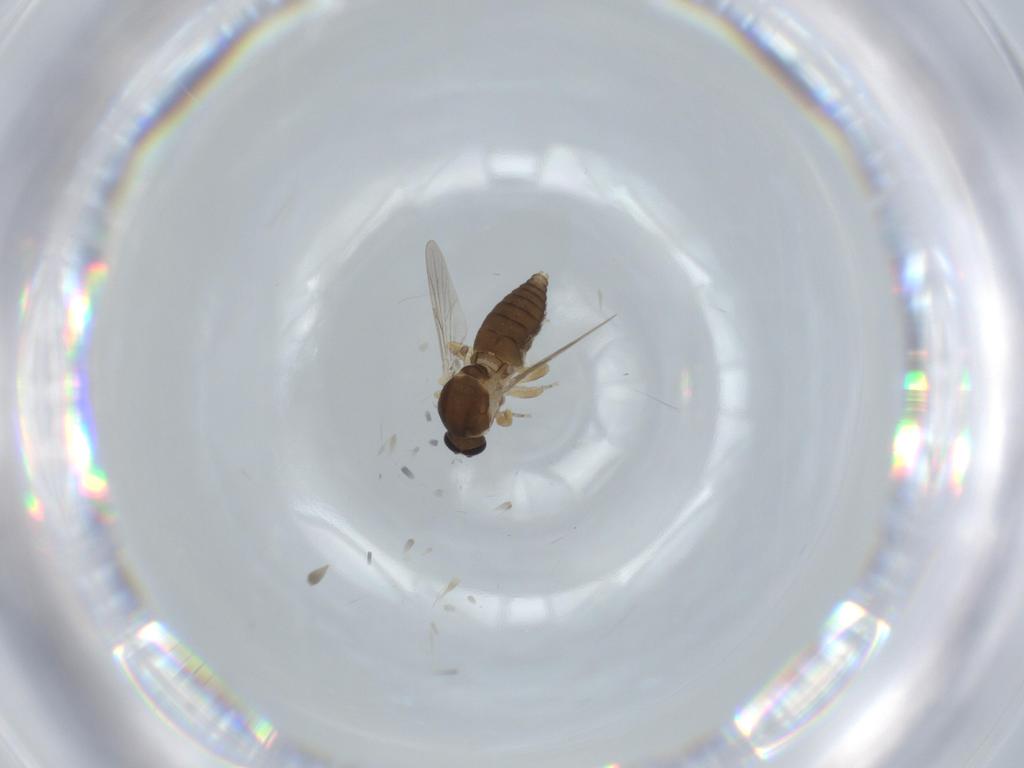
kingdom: Animalia
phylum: Arthropoda
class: Insecta
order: Diptera
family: Ceratopogonidae
